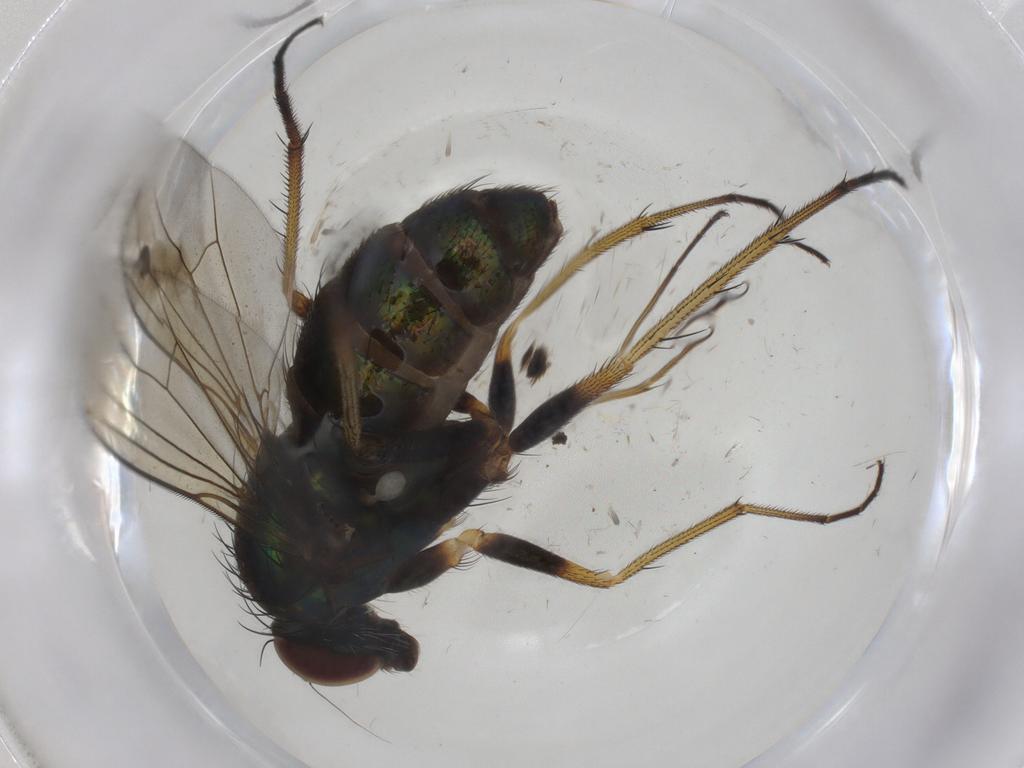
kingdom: Animalia
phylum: Arthropoda
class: Insecta
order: Diptera
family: Dolichopodidae
